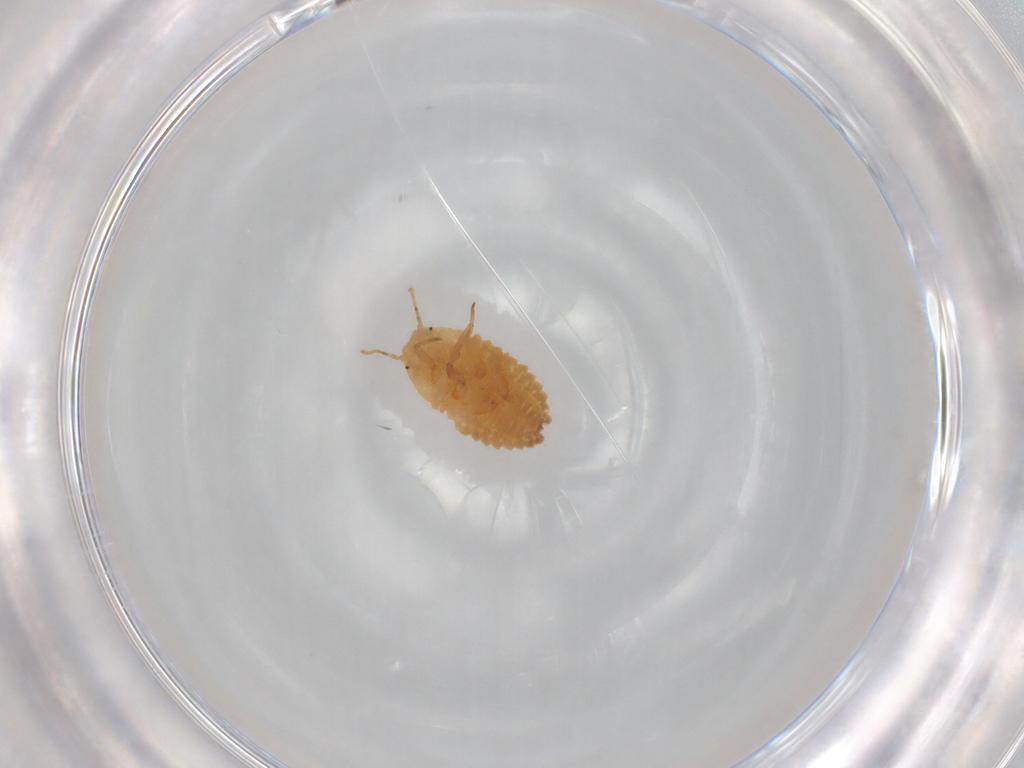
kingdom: Animalia
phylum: Arthropoda
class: Insecta
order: Hemiptera
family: Pseudococcidae
